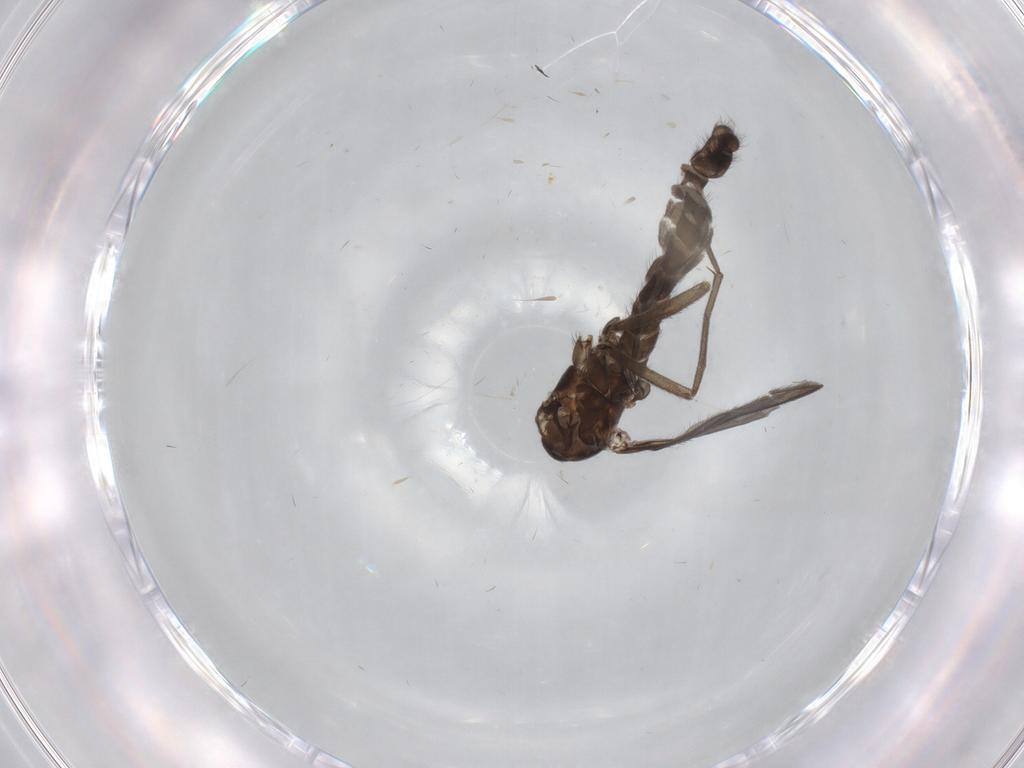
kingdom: Animalia
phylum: Arthropoda
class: Insecta
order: Diptera
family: Sciaridae
